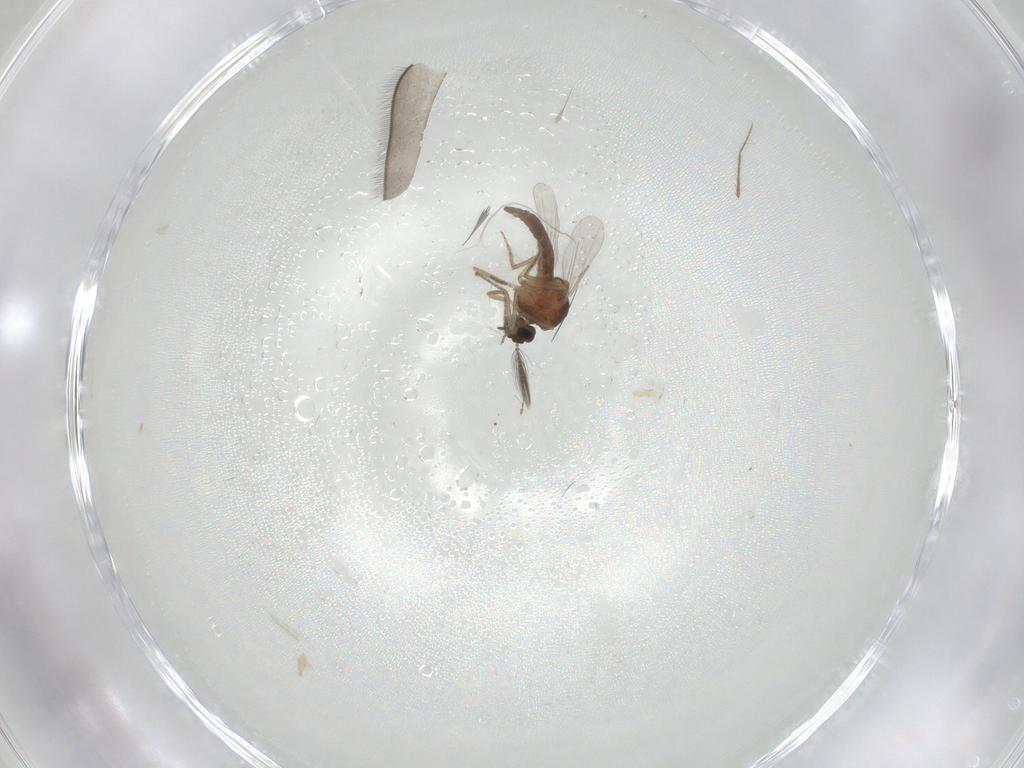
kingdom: Animalia
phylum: Arthropoda
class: Insecta
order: Diptera
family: Ceratopogonidae
